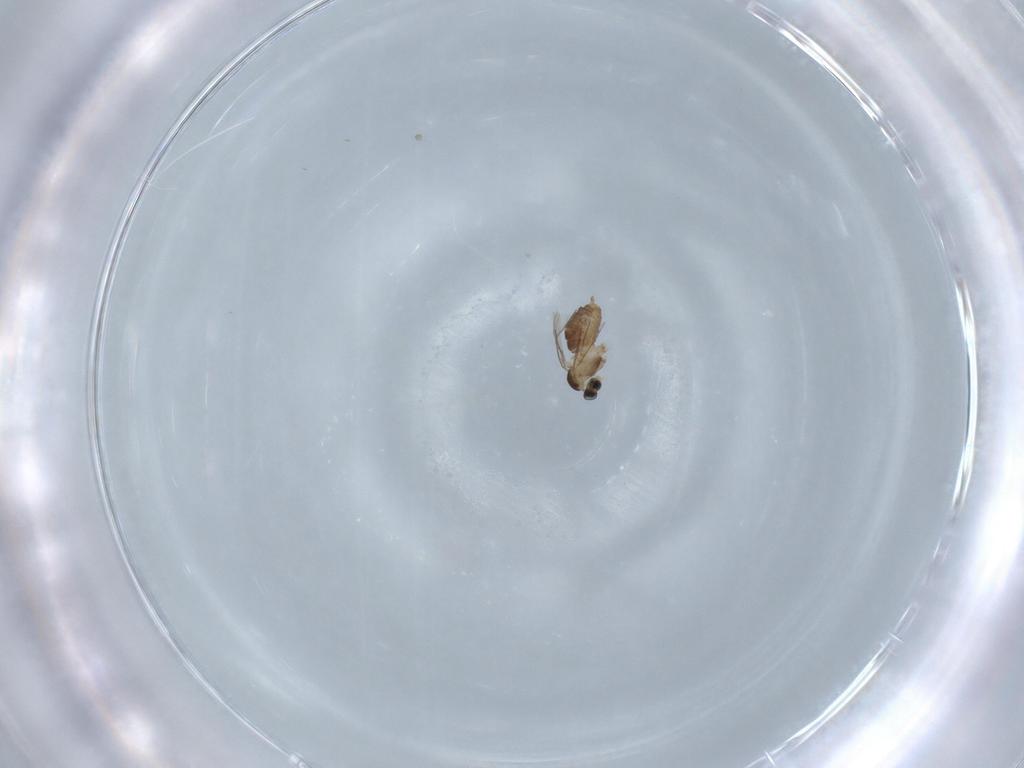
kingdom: Animalia
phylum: Arthropoda
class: Insecta
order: Diptera
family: Cecidomyiidae
